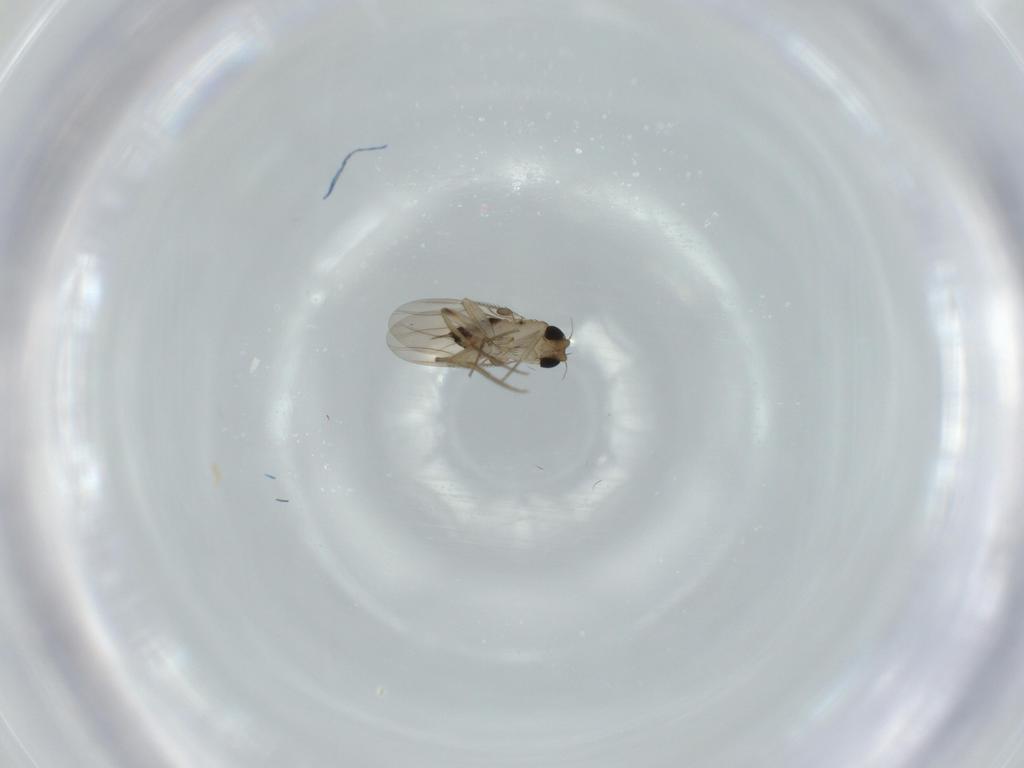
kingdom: Animalia
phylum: Arthropoda
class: Insecta
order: Diptera
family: Phoridae
